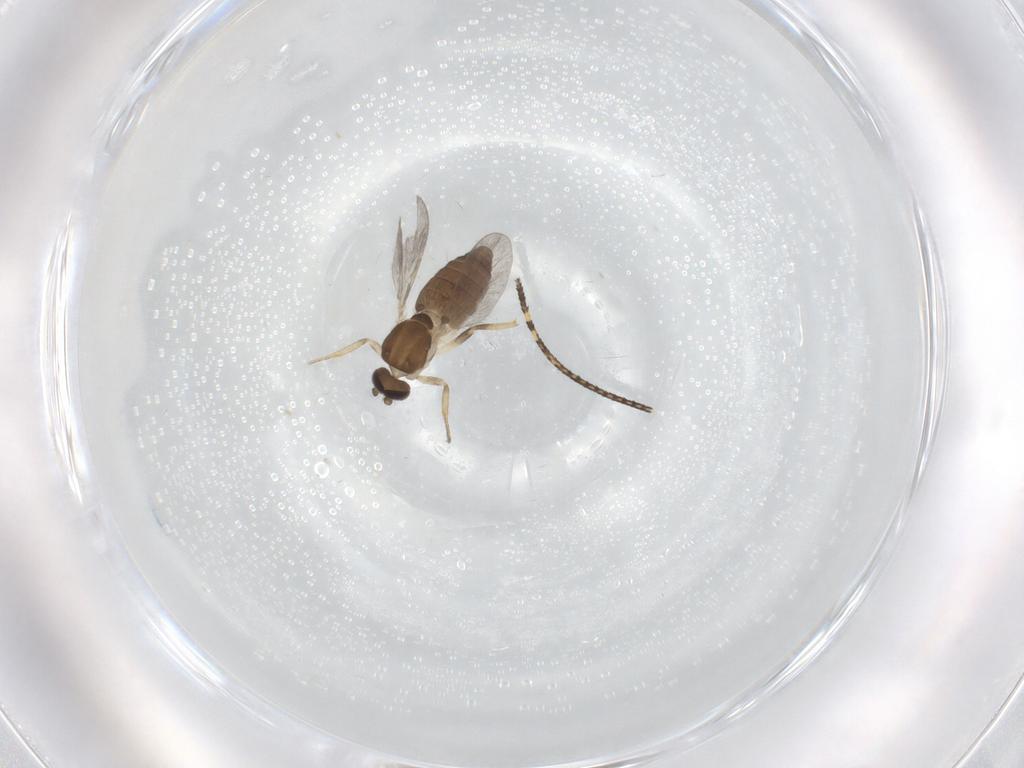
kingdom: Animalia
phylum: Arthropoda
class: Insecta
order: Diptera
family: Ceratopogonidae
